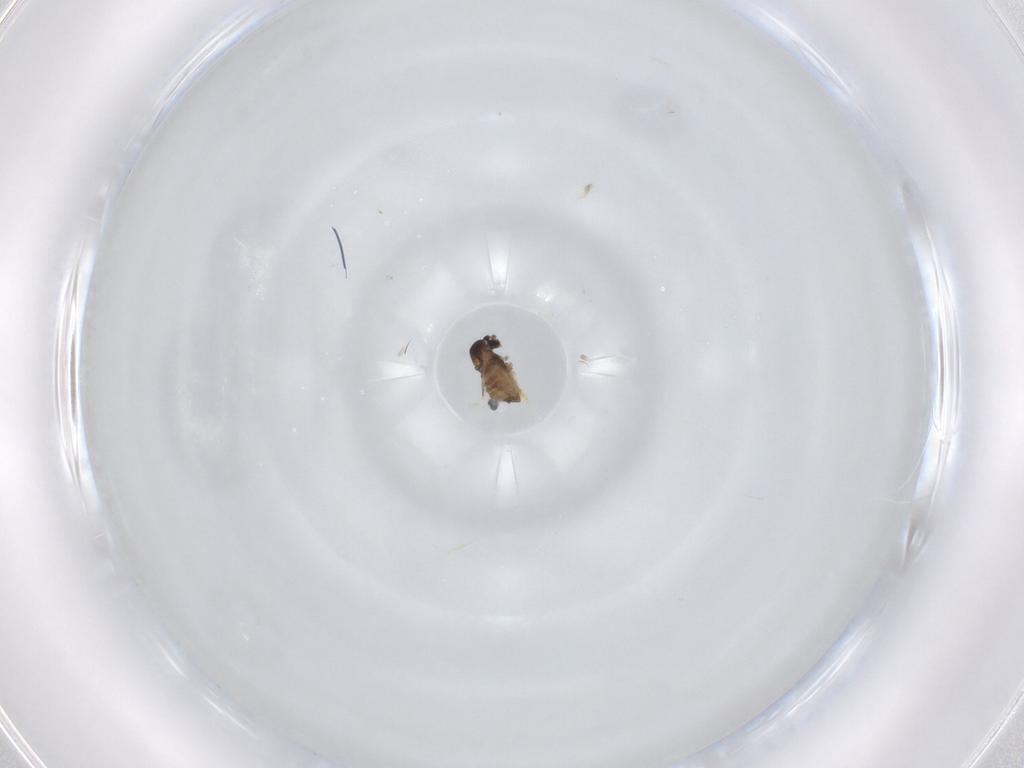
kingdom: Animalia
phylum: Arthropoda
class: Insecta
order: Diptera
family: Cecidomyiidae
